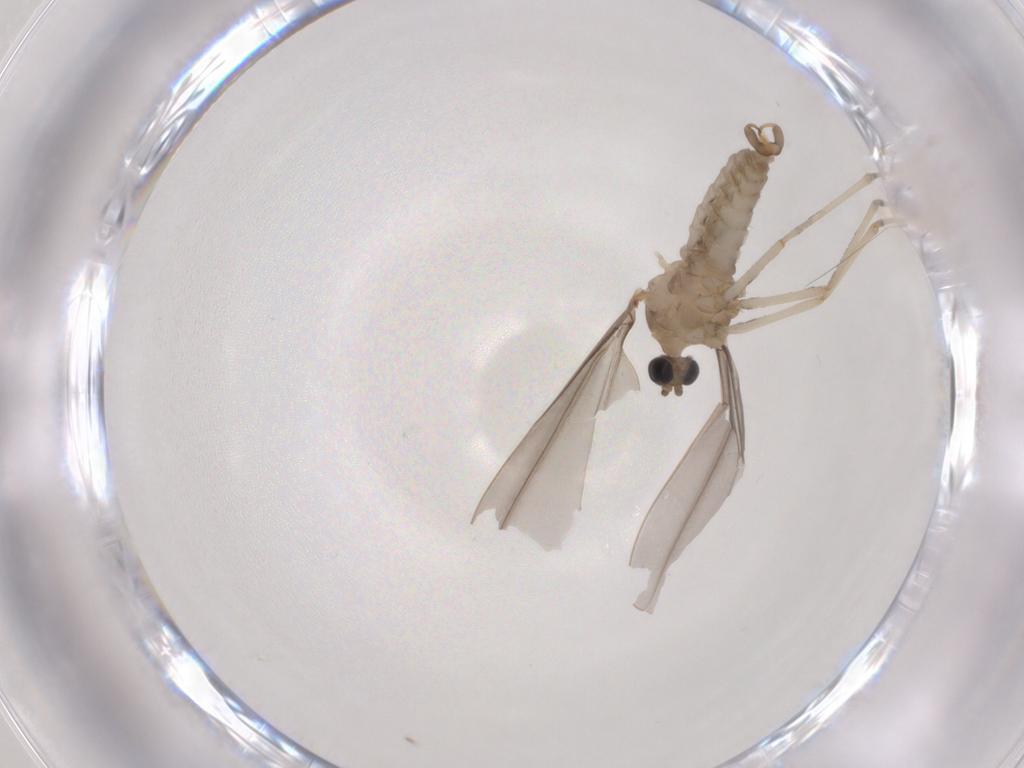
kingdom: Animalia
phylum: Arthropoda
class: Insecta
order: Diptera
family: Cecidomyiidae
